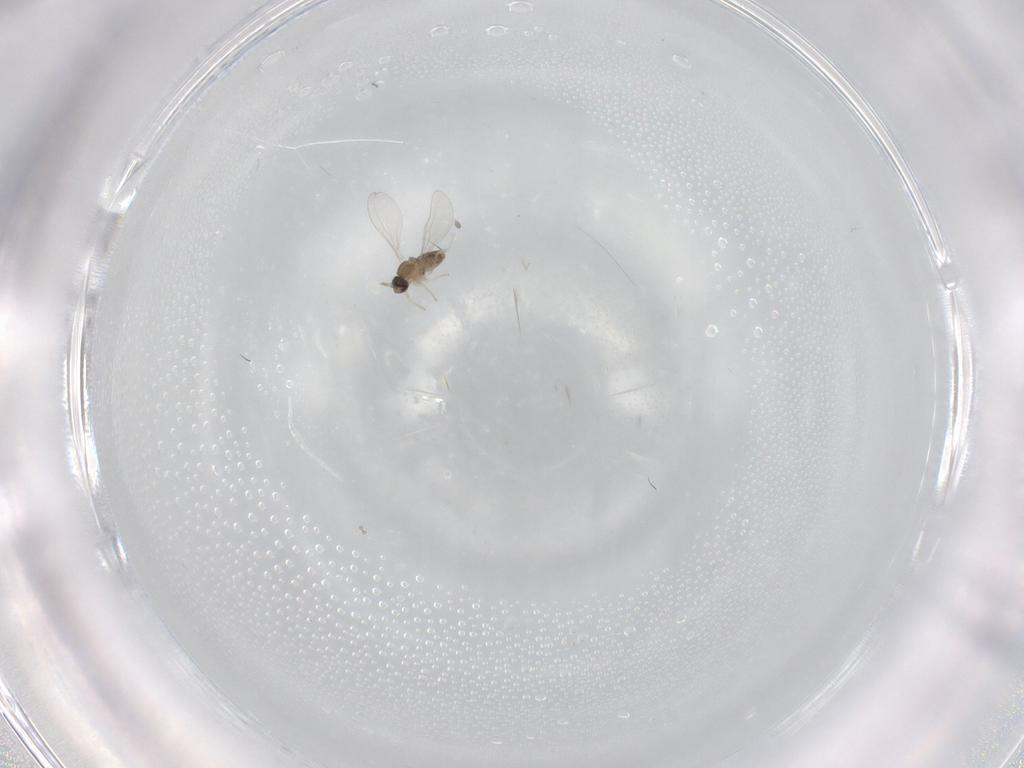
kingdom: Animalia
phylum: Arthropoda
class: Insecta
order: Diptera
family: Cecidomyiidae
